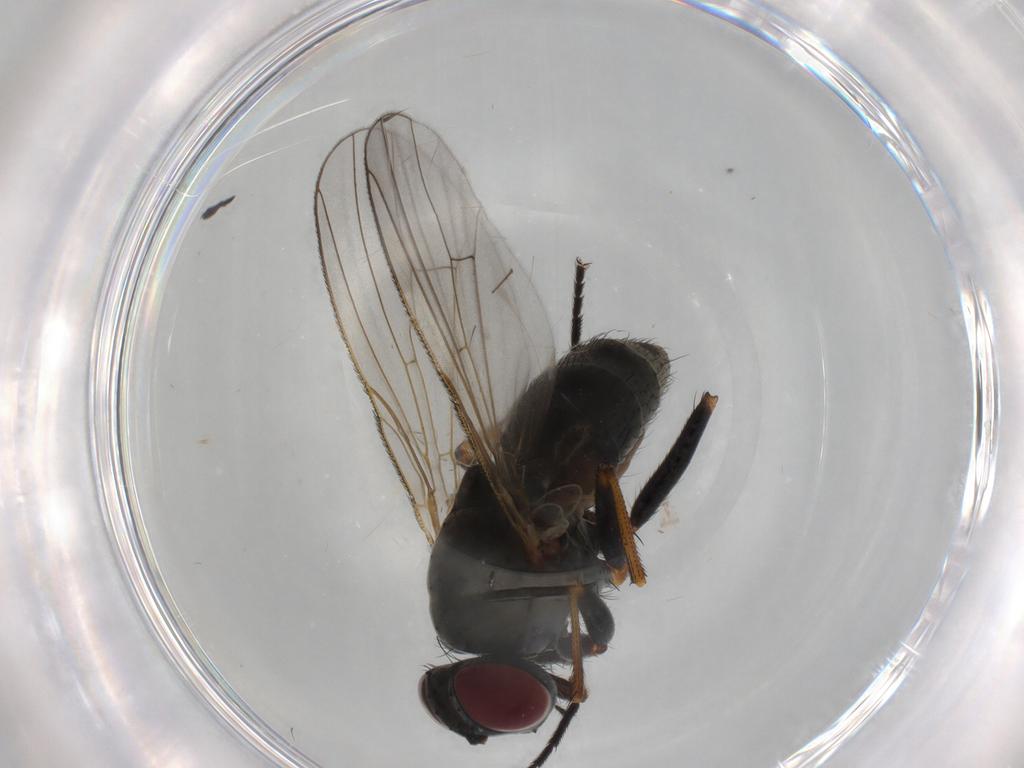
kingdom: Animalia
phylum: Arthropoda
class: Insecta
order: Diptera
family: Muscidae
